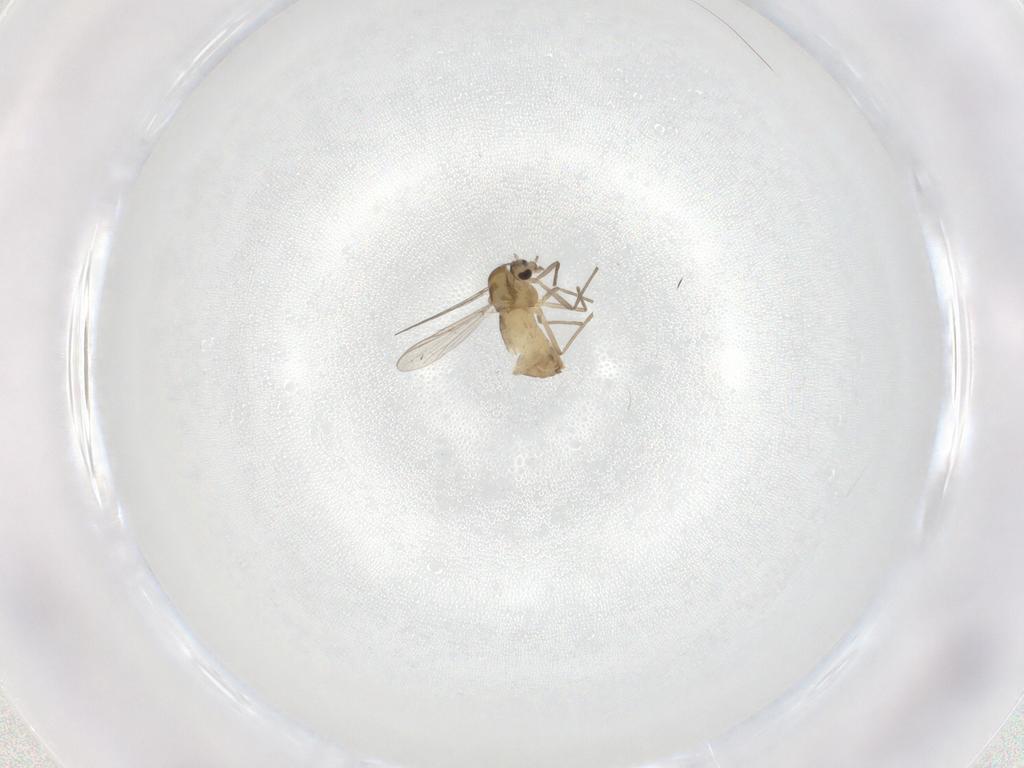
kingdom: Animalia
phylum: Arthropoda
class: Insecta
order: Diptera
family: Chironomidae
